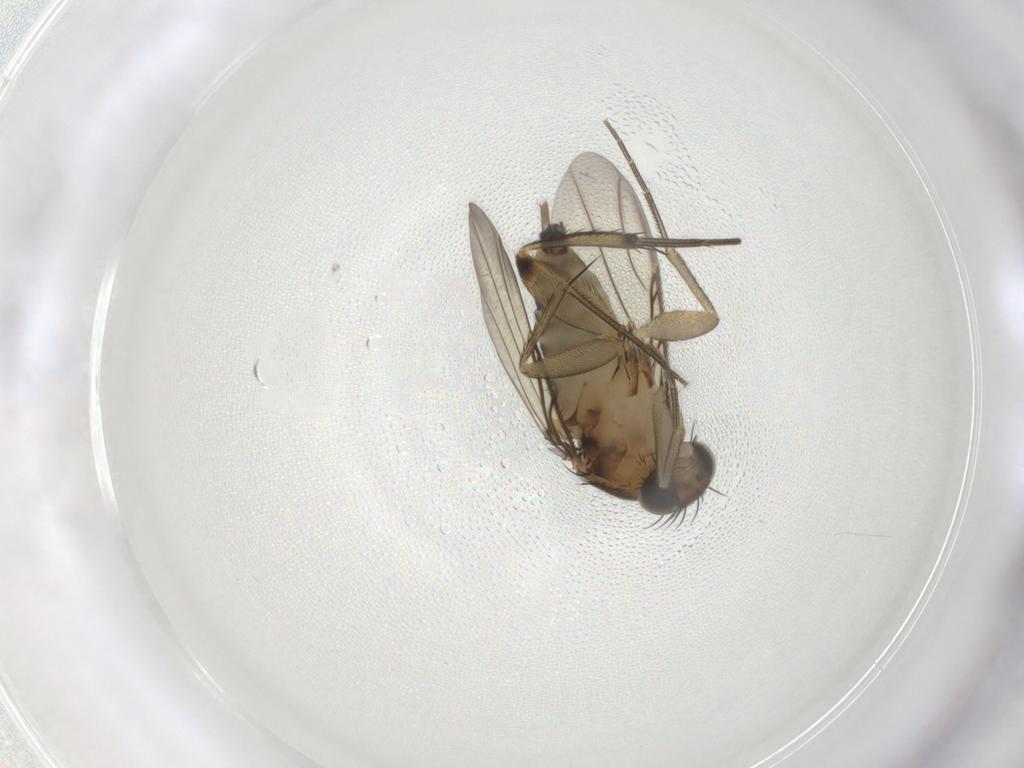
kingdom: Animalia
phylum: Arthropoda
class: Insecta
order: Diptera
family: Phoridae
